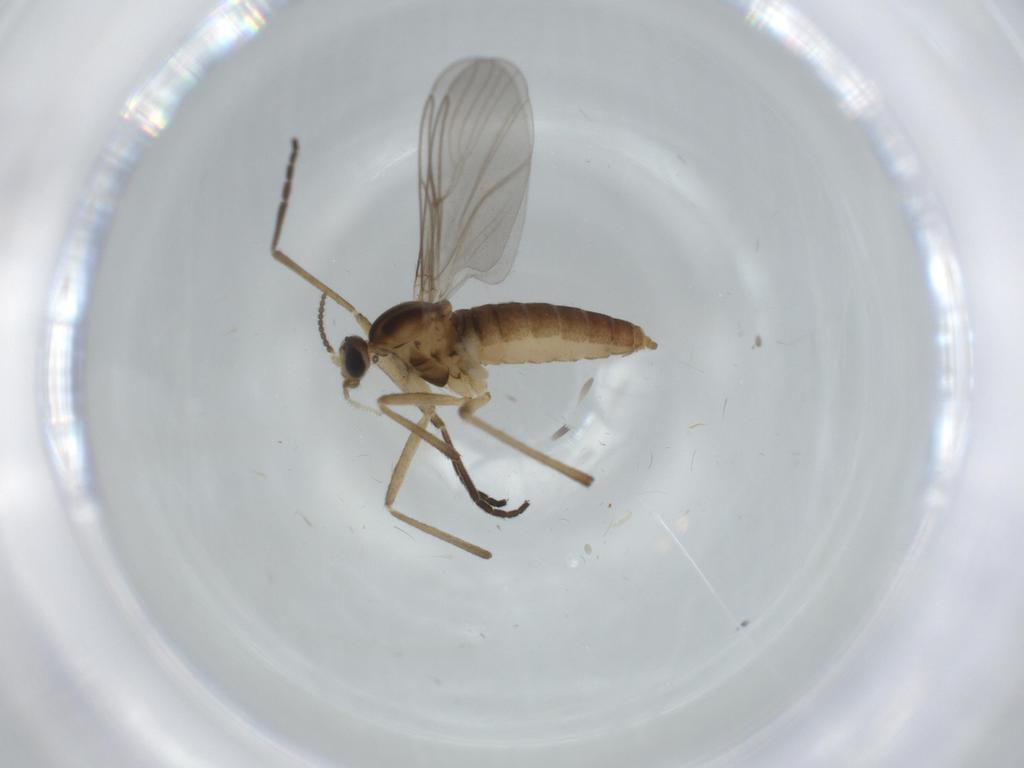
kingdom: Animalia
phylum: Arthropoda
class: Insecta
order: Diptera
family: Cecidomyiidae
